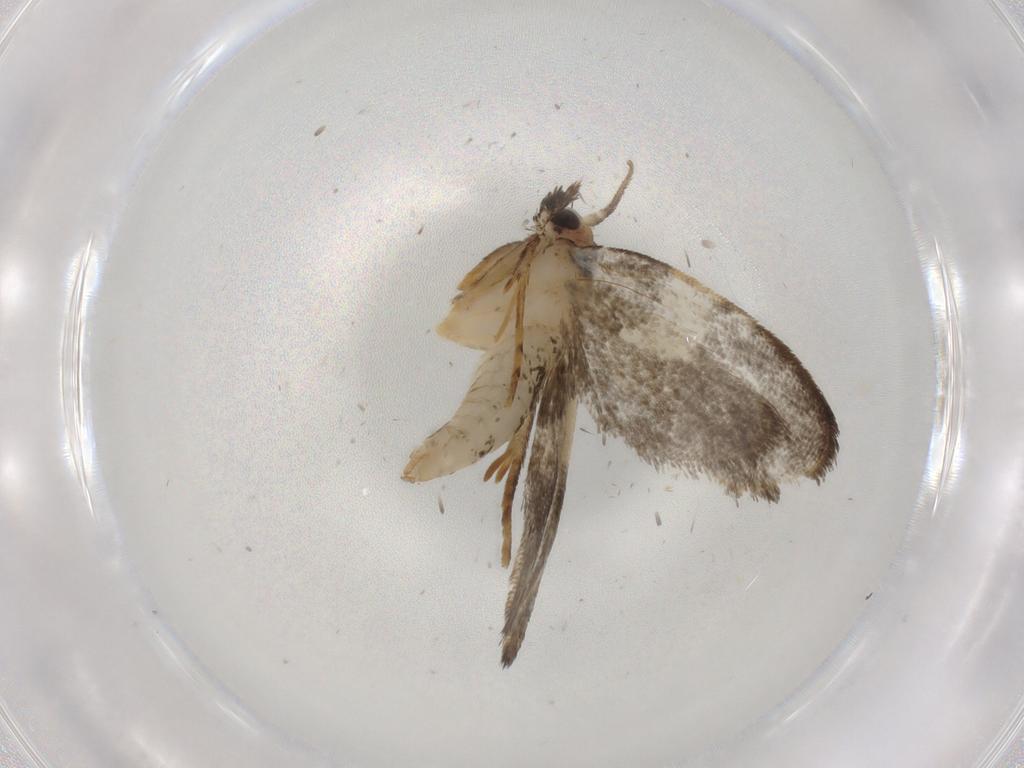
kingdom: Animalia
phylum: Arthropoda
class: Insecta
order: Lepidoptera
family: Psychidae
